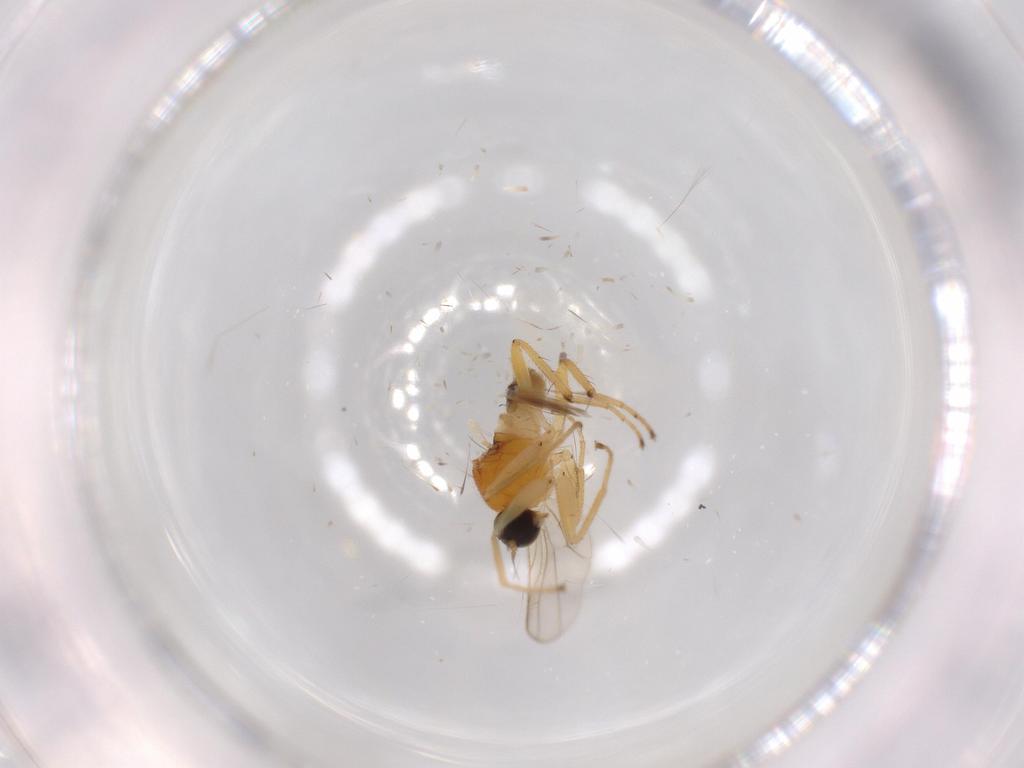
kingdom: Animalia
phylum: Arthropoda
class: Insecta
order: Diptera
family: Hybotidae
